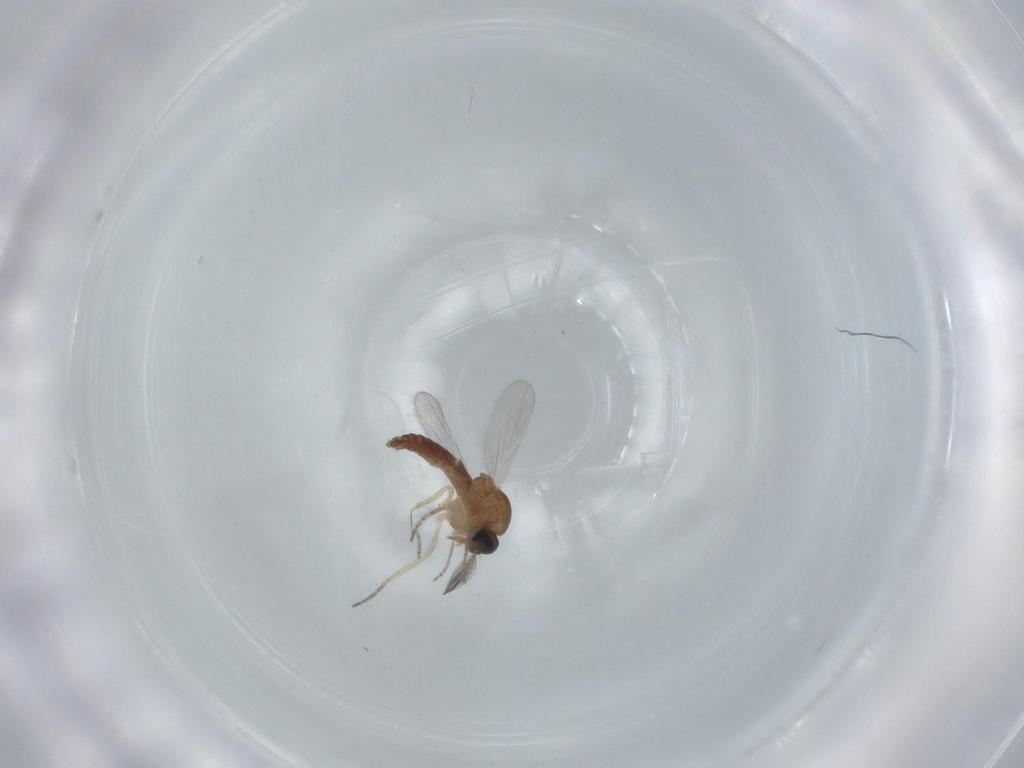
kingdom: Animalia
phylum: Arthropoda
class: Insecta
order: Diptera
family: Ceratopogonidae
